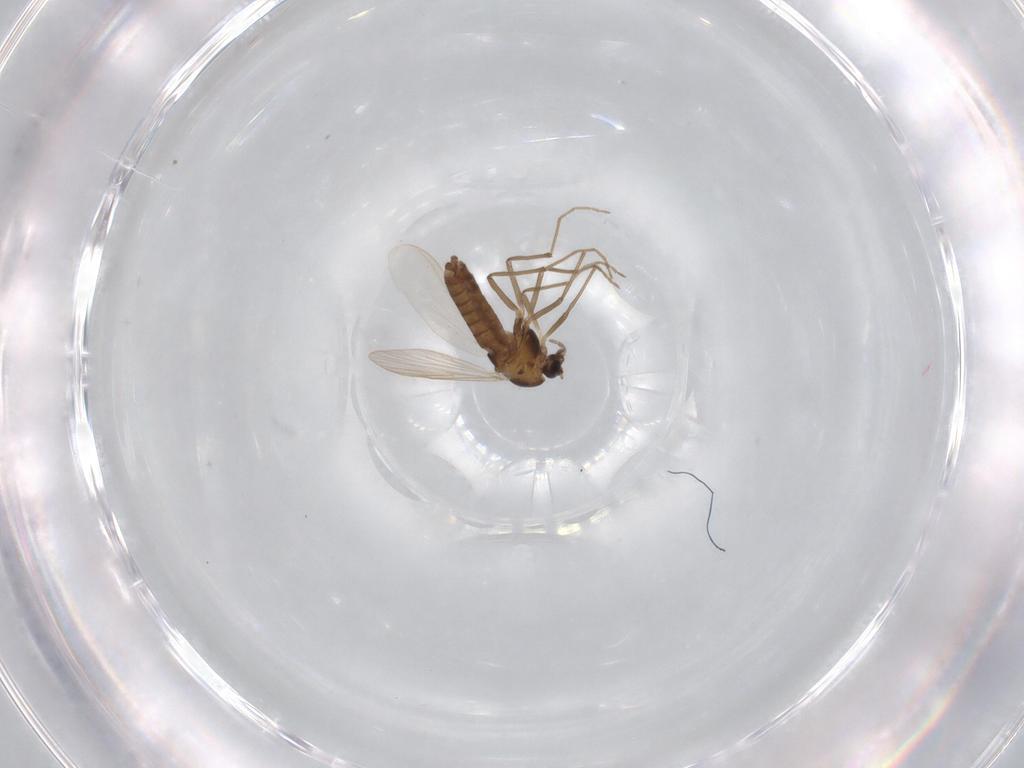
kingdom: Animalia
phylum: Arthropoda
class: Insecta
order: Diptera
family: Chironomidae
